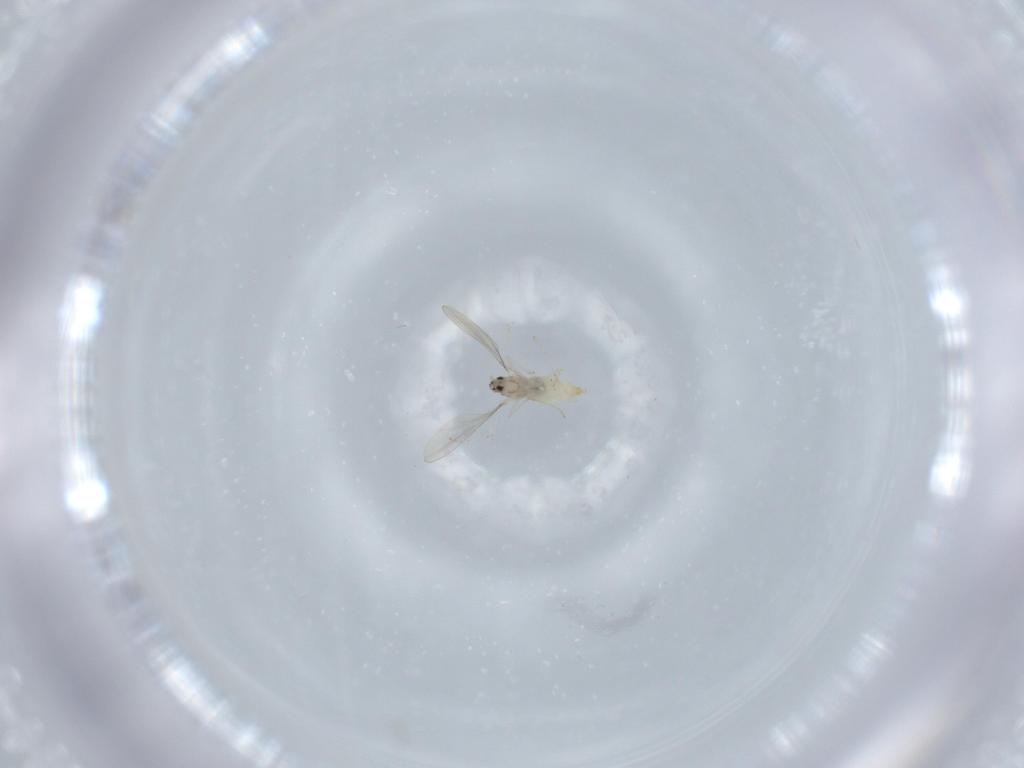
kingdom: Animalia
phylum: Arthropoda
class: Insecta
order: Diptera
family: Cecidomyiidae
